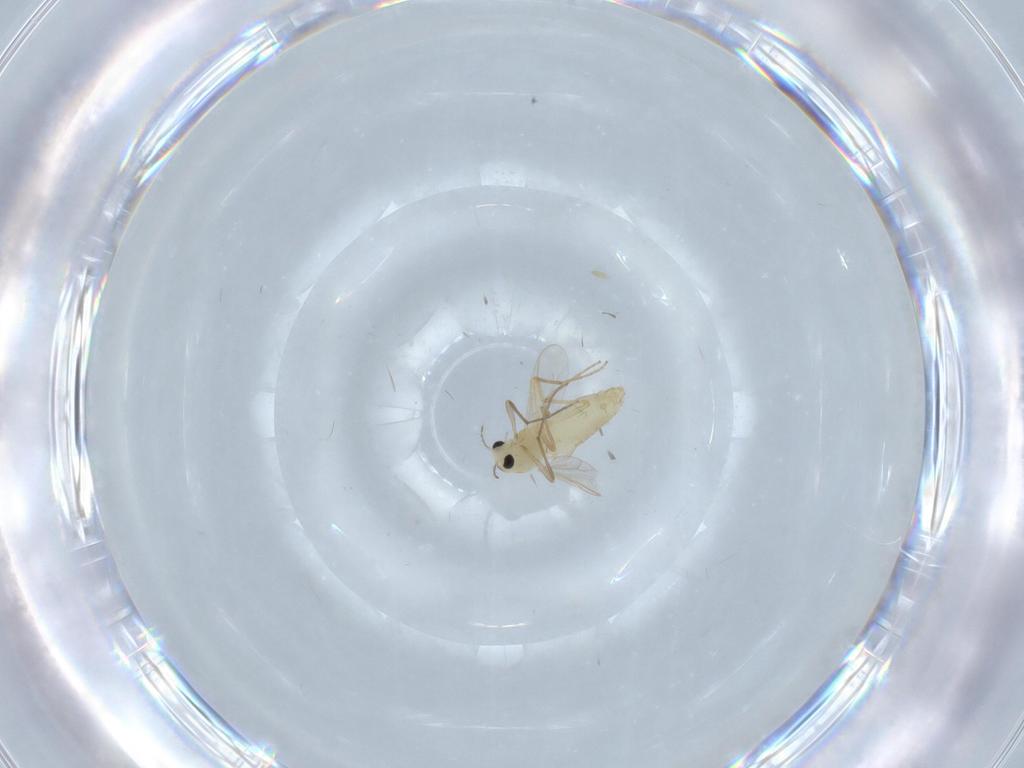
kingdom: Animalia
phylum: Arthropoda
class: Insecta
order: Diptera
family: Chironomidae
